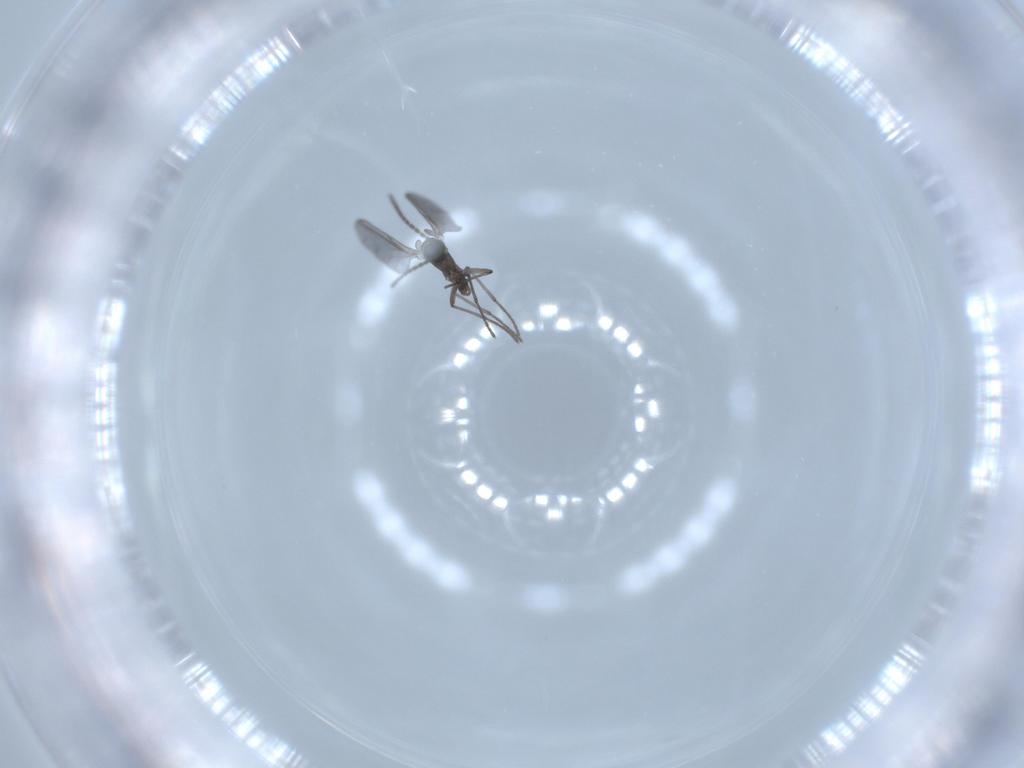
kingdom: Animalia
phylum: Arthropoda
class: Insecta
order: Diptera
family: Sciaridae
